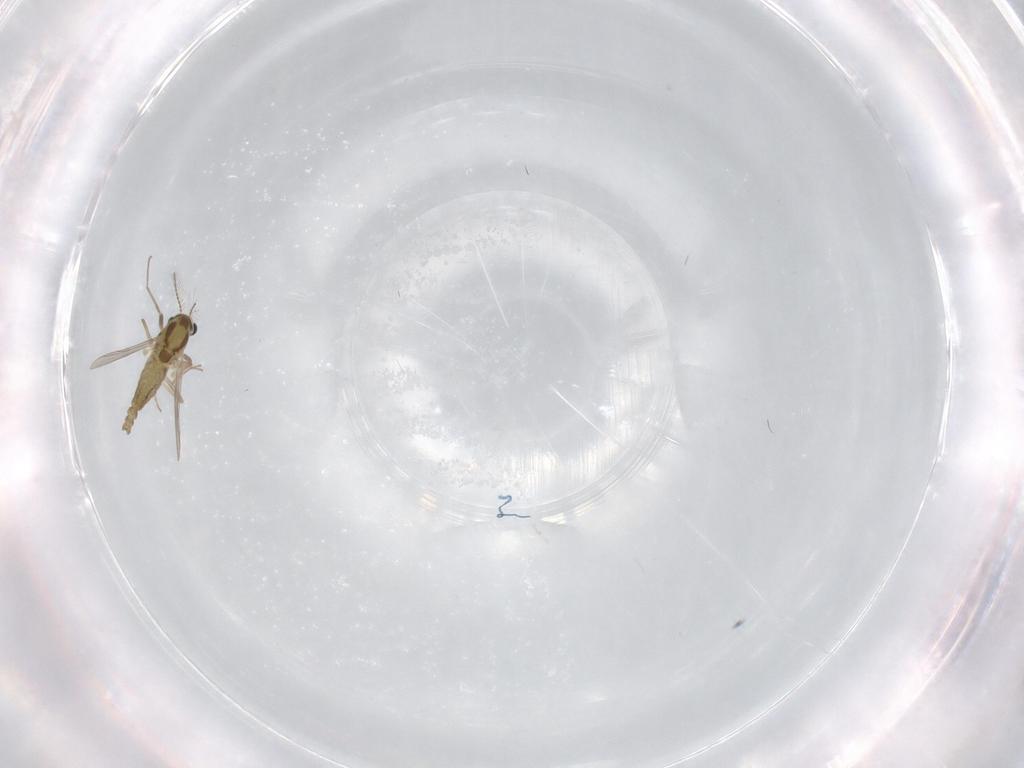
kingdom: Animalia
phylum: Arthropoda
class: Insecta
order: Diptera
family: Chironomidae
